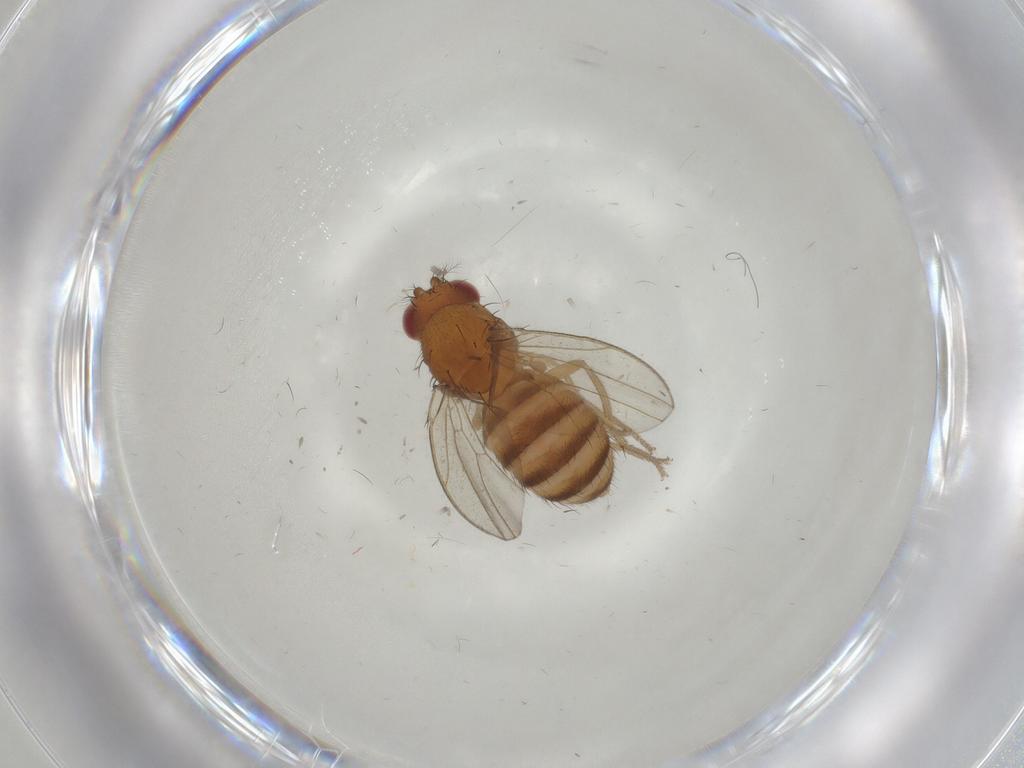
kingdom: Animalia
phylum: Arthropoda
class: Insecta
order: Diptera
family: Drosophilidae
